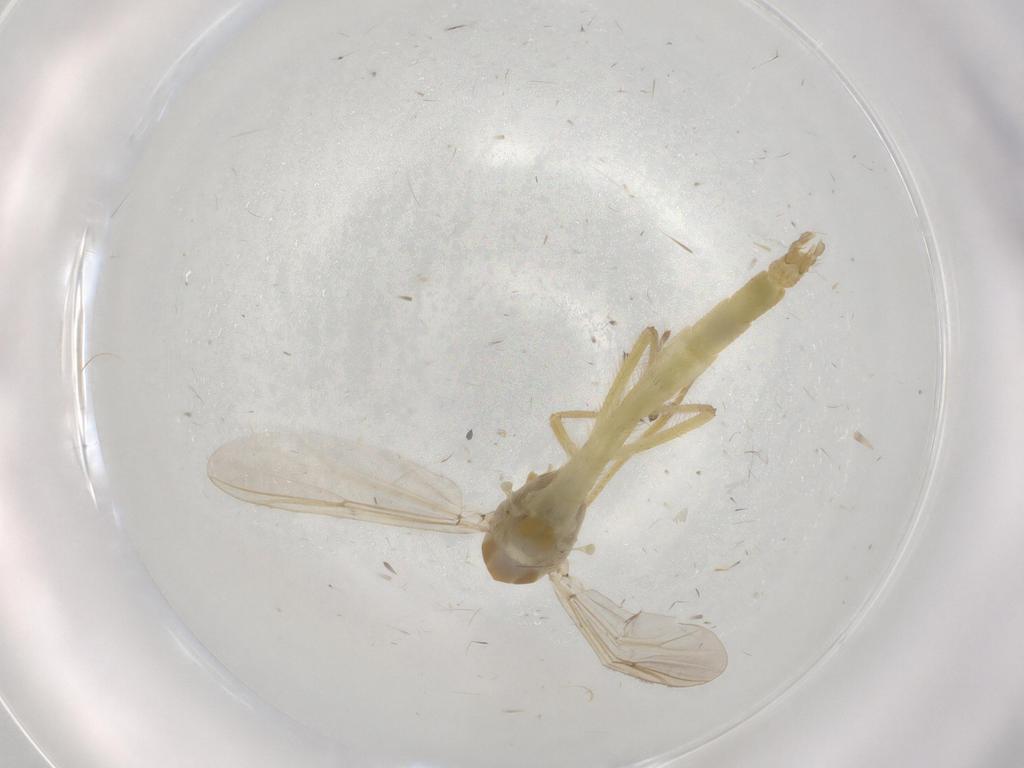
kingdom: Animalia
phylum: Arthropoda
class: Insecta
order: Diptera
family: Chironomidae
